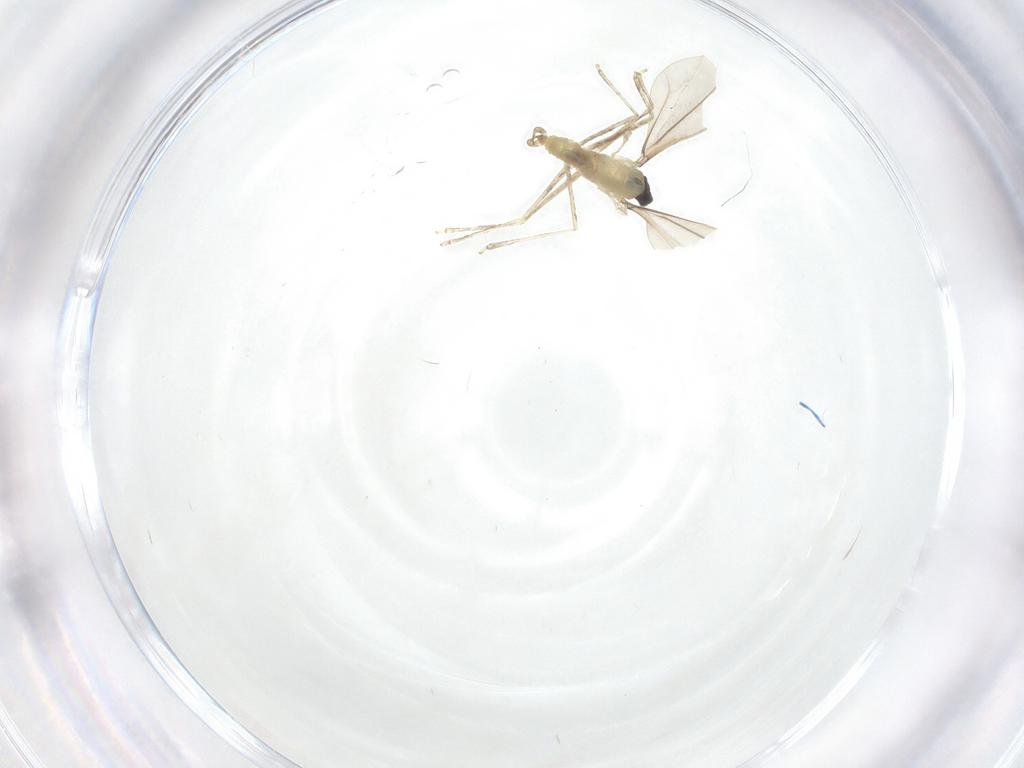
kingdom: Animalia
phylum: Arthropoda
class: Insecta
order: Diptera
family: Cecidomyiidae
